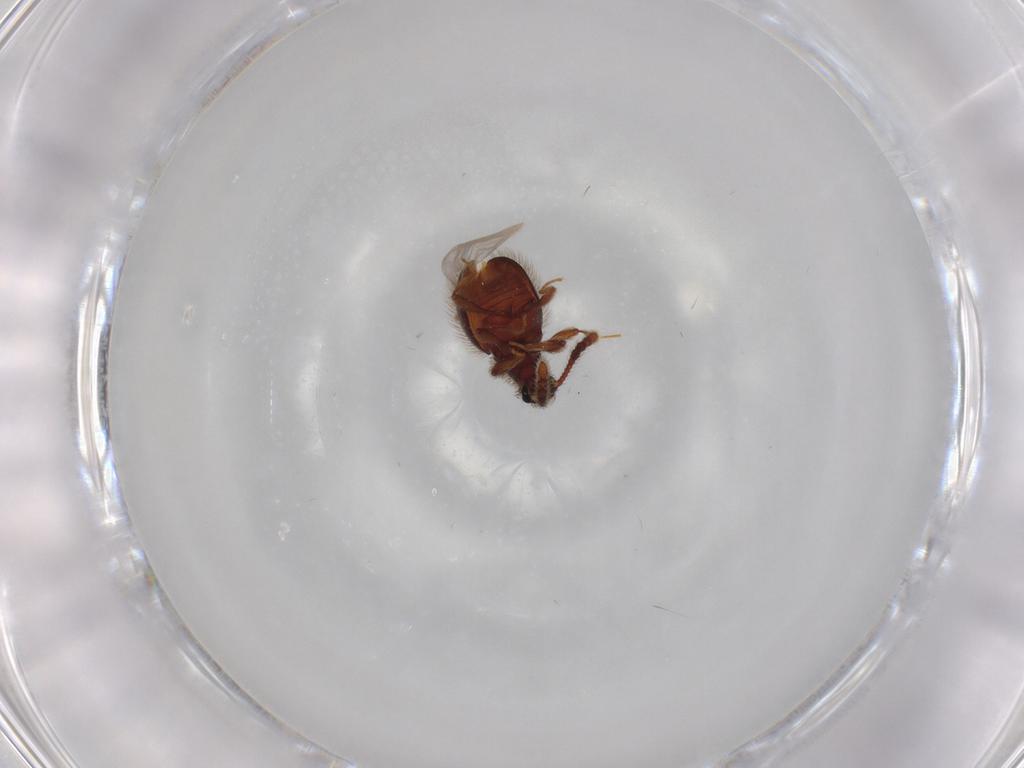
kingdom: Animalia
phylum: Arthropoda
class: Insecta
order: Coleoptera
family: Staphylinidae
